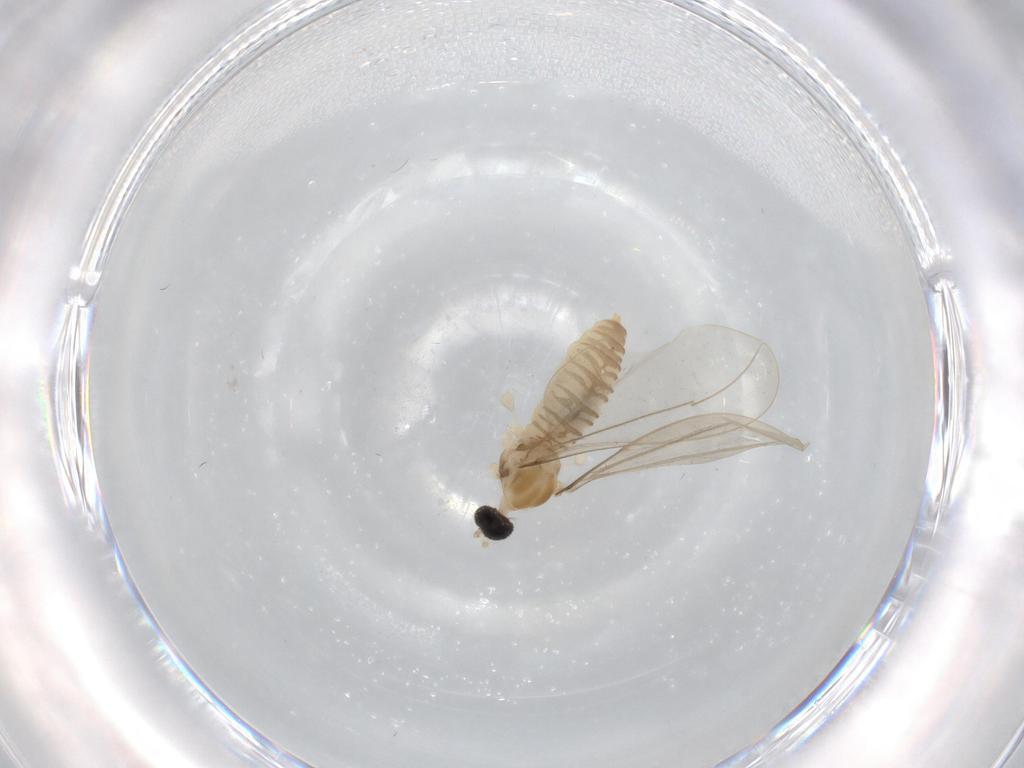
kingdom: Animalia
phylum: Arthropoda
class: Insecta
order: Diptera
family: Cecidomyiidae
